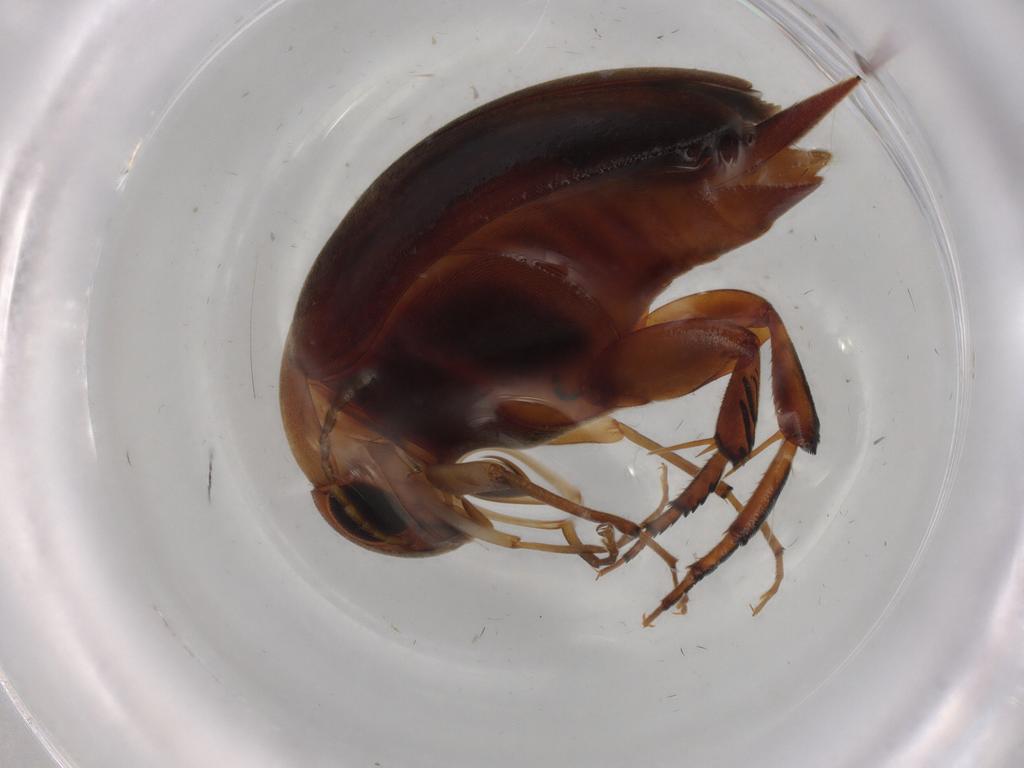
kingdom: Animalia
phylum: Arthropoda
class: Insecta
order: Coleoptera
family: Mordellidae
